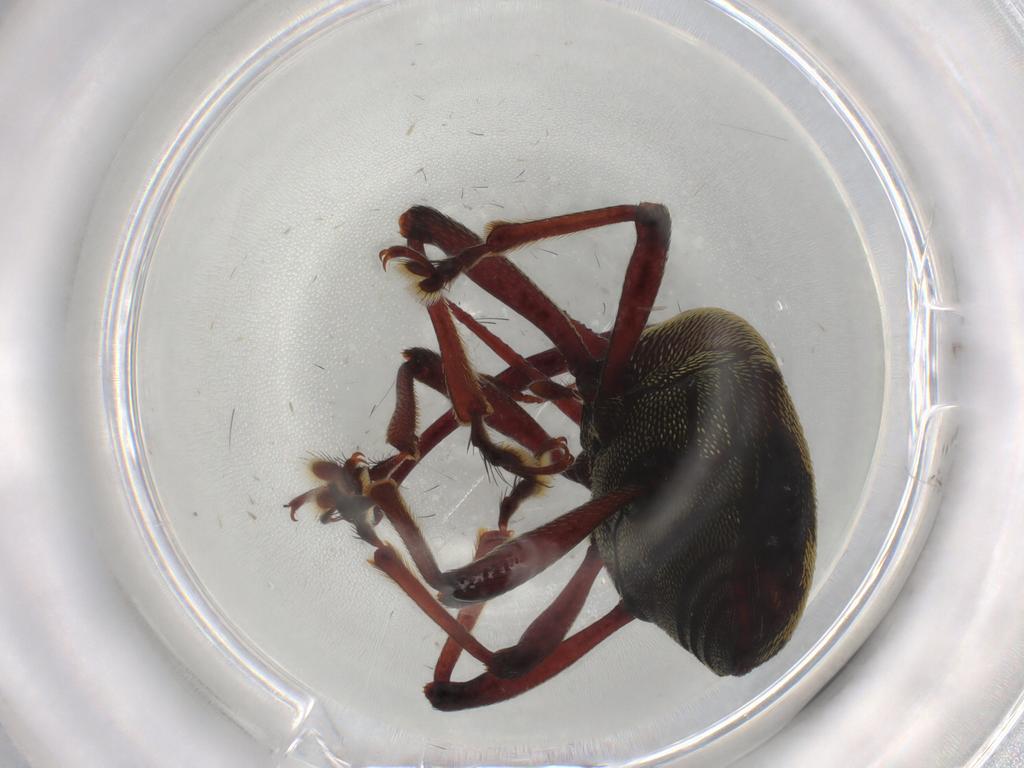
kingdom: Animalia
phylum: Arthropoda
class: Insecta
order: Coleoptera
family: Curculionidae
